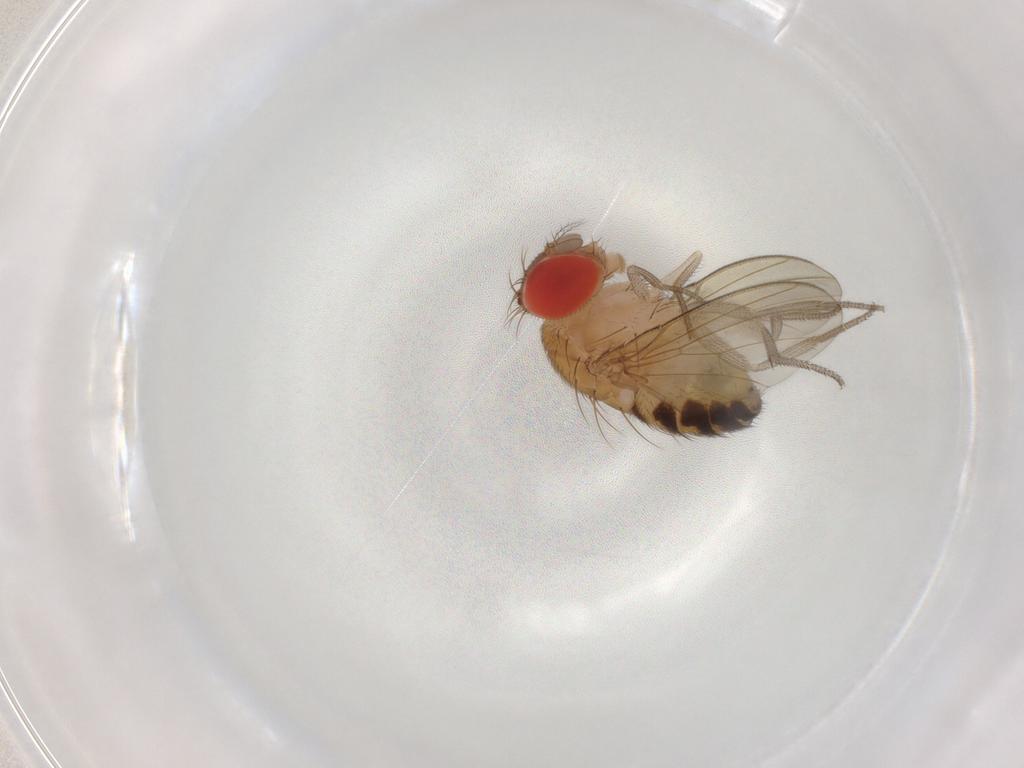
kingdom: Animalia
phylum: Arthropoda
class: Insecta
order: Diptera
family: Drosophilidae
